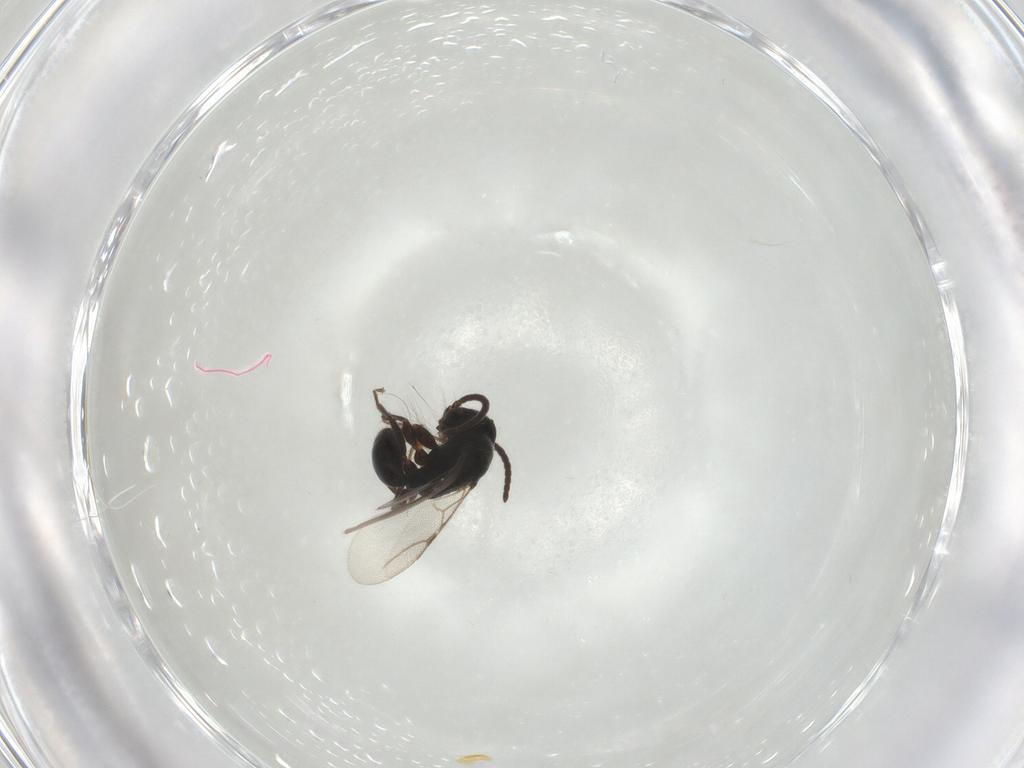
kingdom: Animalia
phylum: Arthropoda
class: Insecta
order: Hymenoptera
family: Bethylidae
